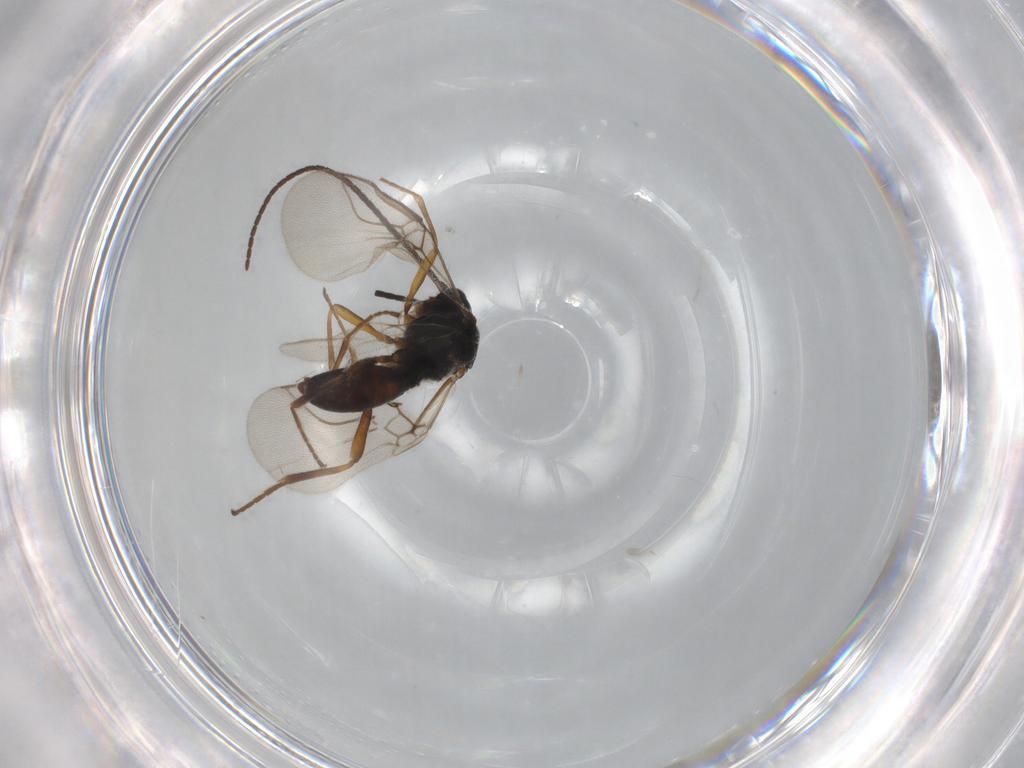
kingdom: Animalia
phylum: Arthropoda
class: Insecta
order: Hymenoptera
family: Braconidae
